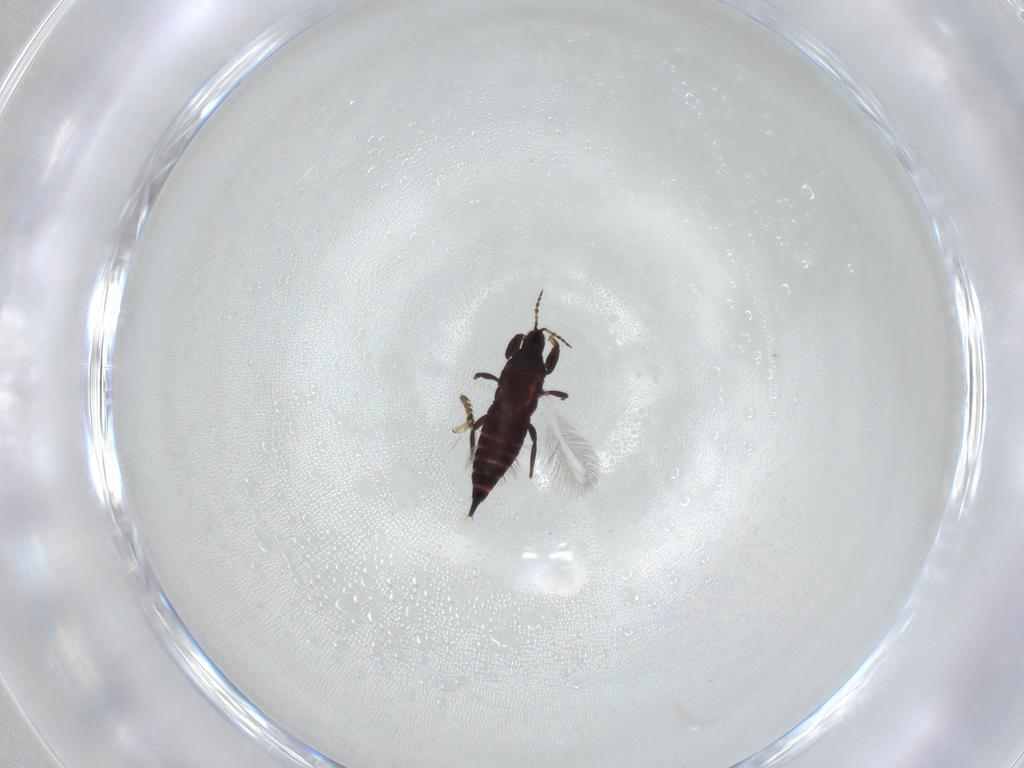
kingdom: Animalia
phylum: Arthropoda
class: Insecta
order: Thysanoptera
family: Phlaeothripidae
